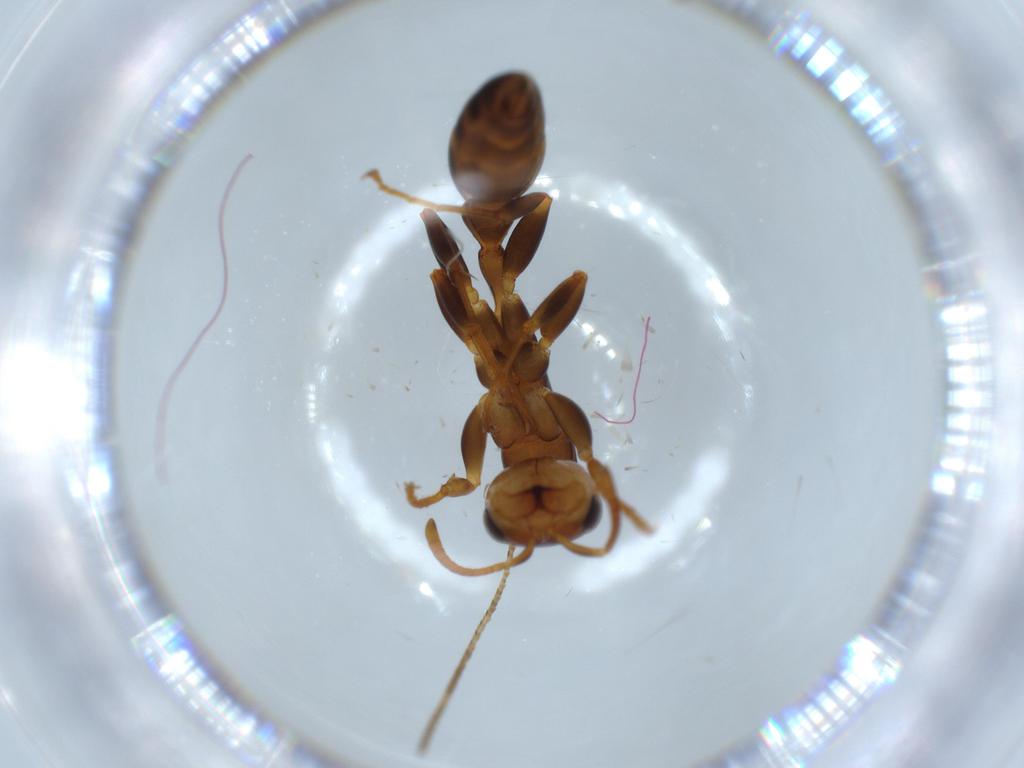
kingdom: Animalia
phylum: Arthropoda
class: Insecta
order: Hymenoptera
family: Formicidae
